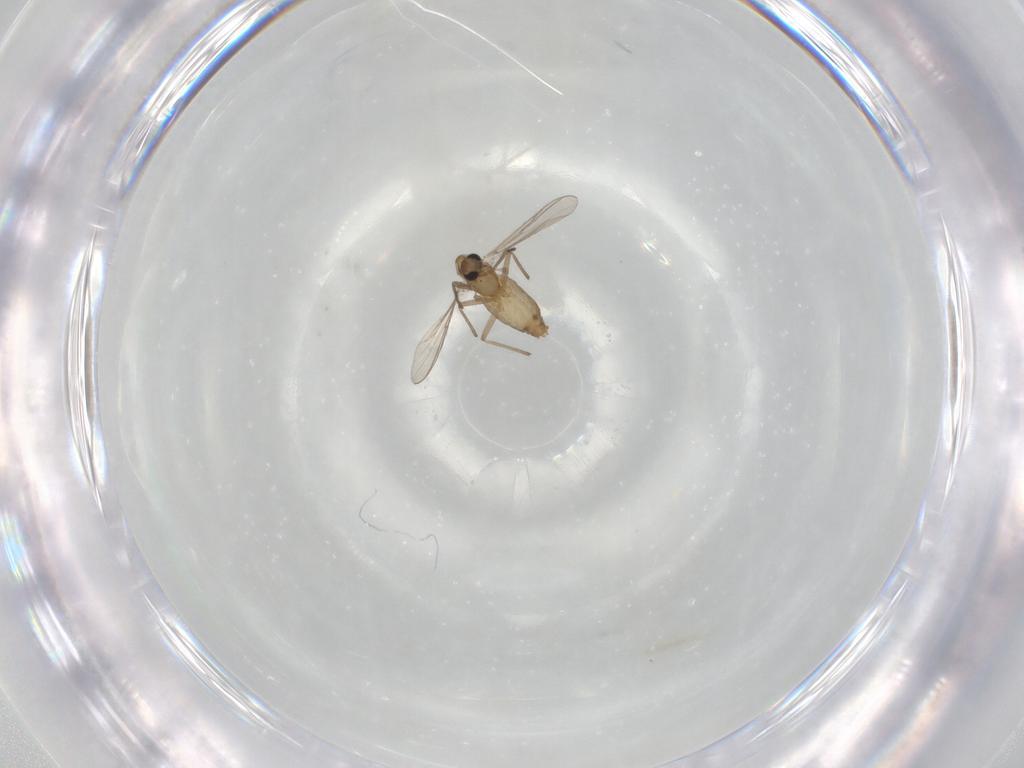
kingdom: Animalia
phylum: Arthropoda
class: Insecta
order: Diptera
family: Chironomidae
